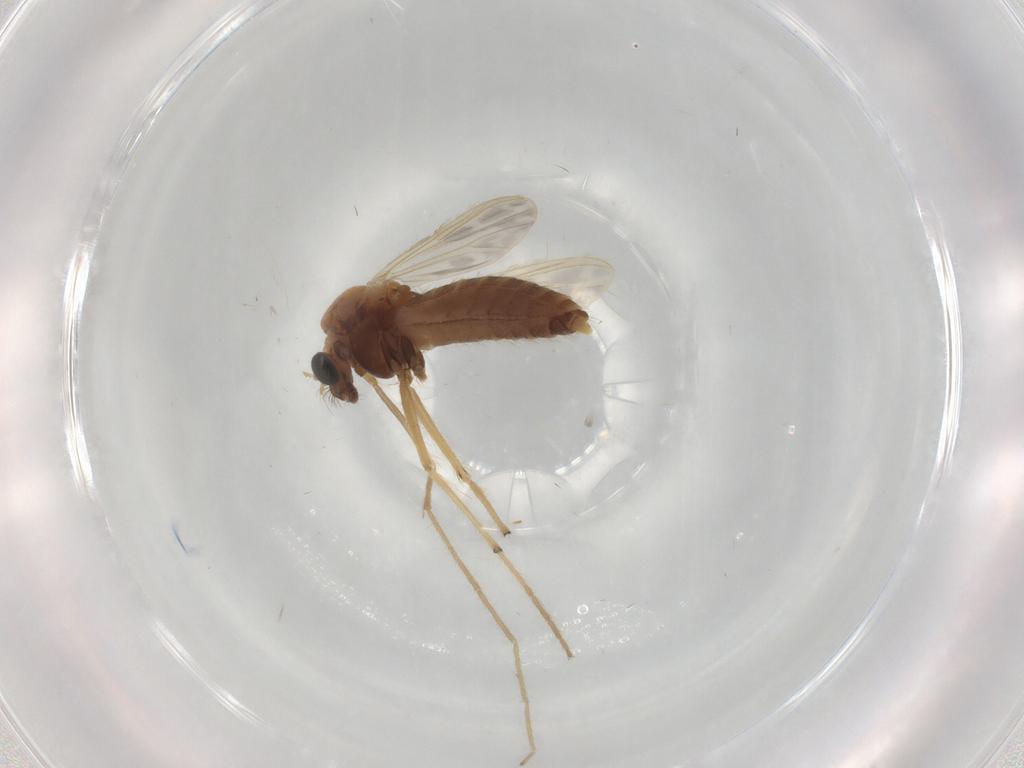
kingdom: Animalia
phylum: Arthropoda
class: Insecta
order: Diptera
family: Chironomidae
